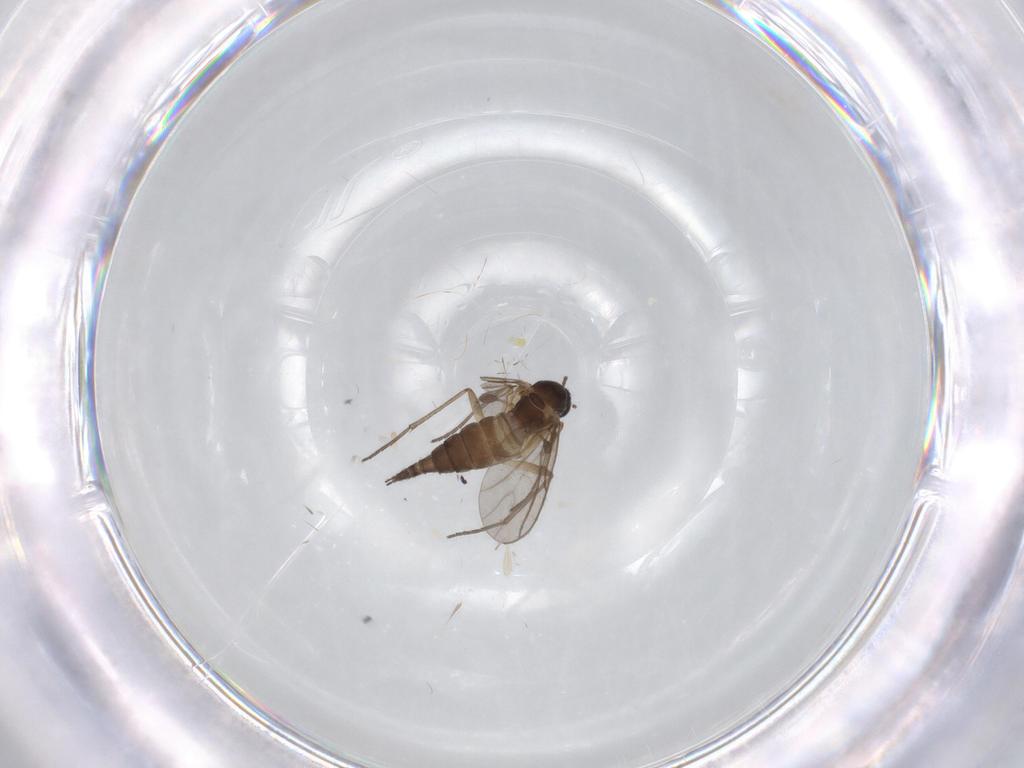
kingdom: Animalia
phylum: Arthropoda
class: Insecta
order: Diptera
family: Sciaridae
